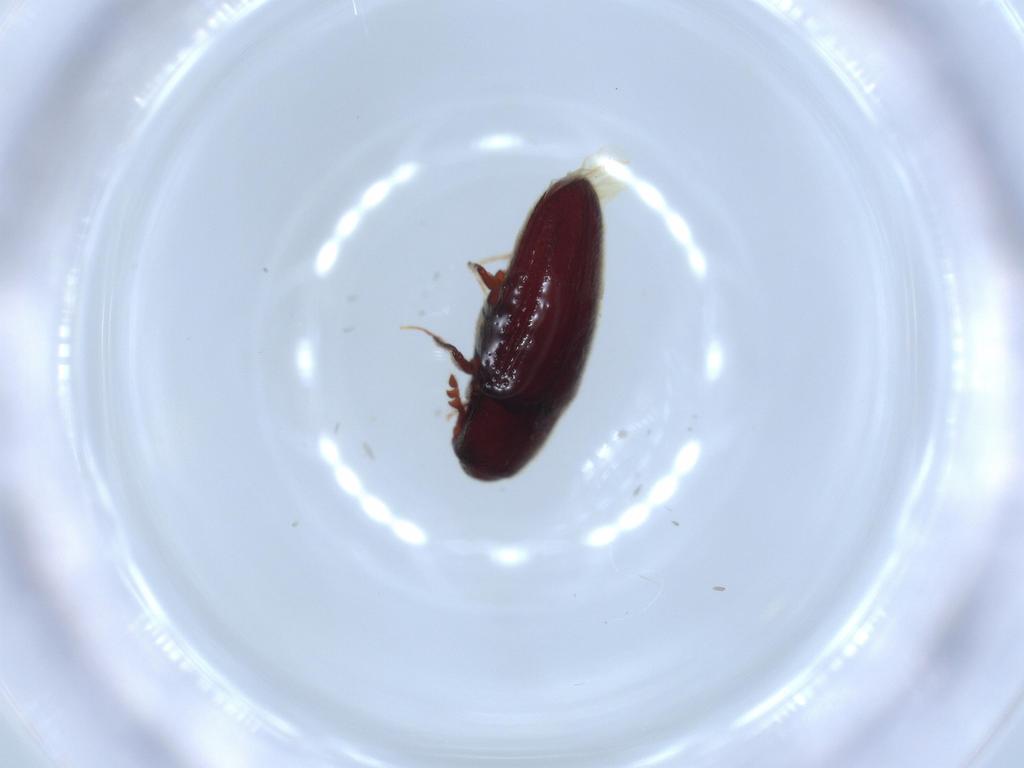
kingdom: Animalia
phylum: Arthropoda
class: Insecta
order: Coleoptera
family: Throscidae
